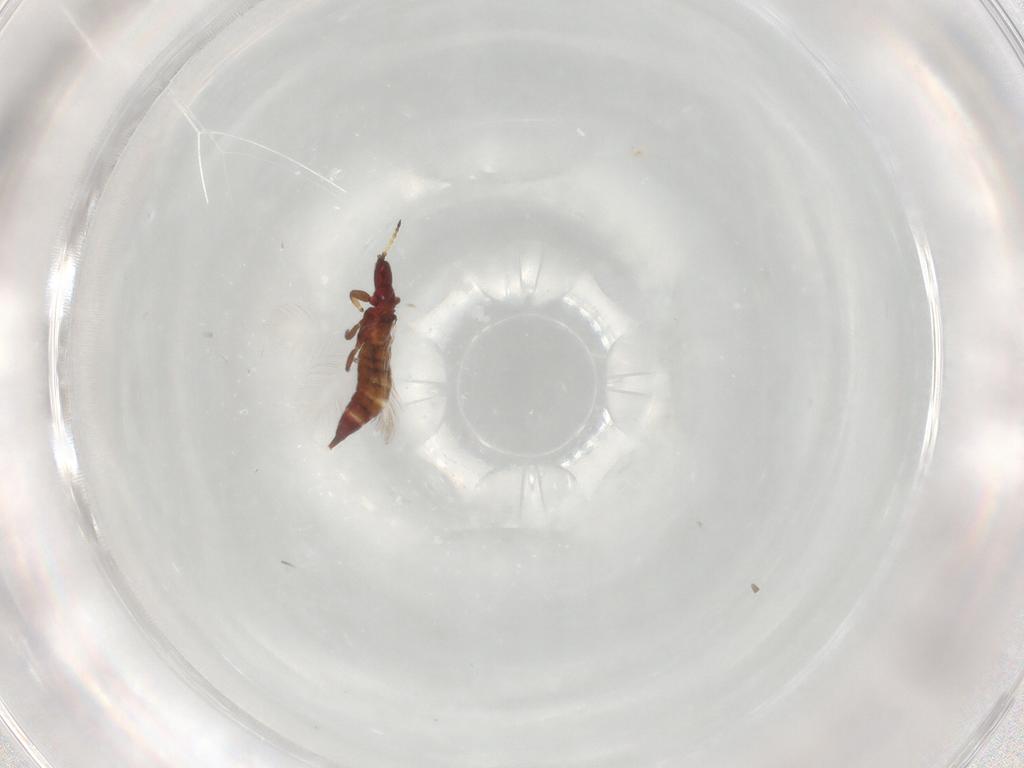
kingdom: Animalia
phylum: Arthropoda
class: Insecta
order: Thysanoptera
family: Phlaeothripidae
